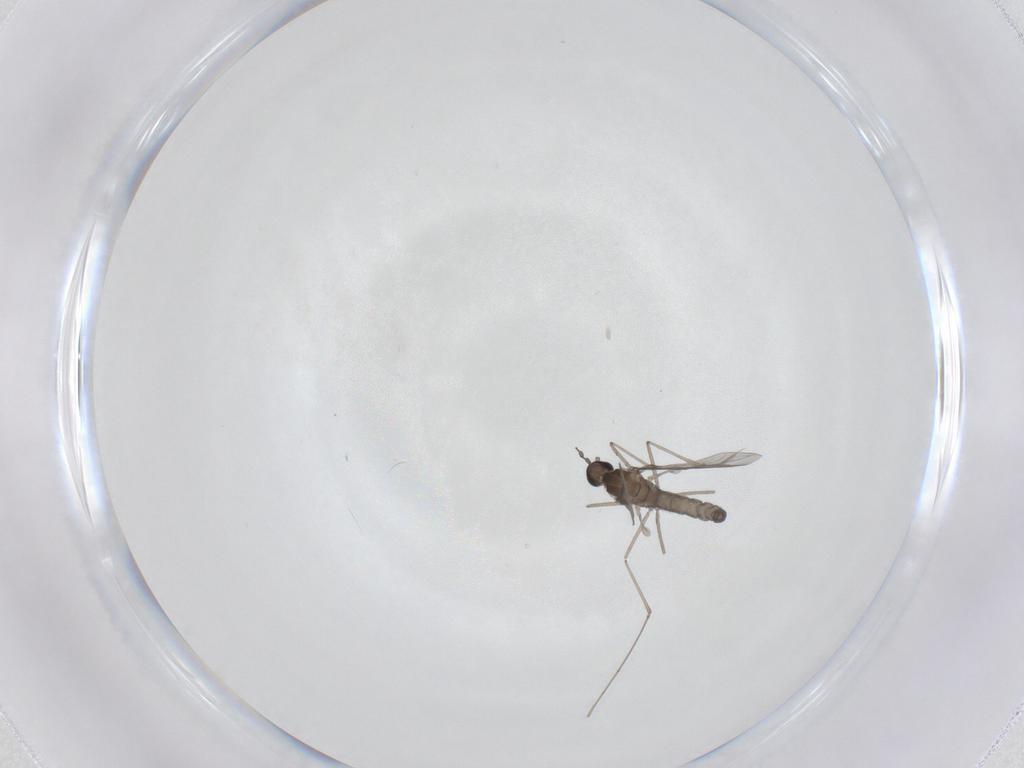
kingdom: Animalia
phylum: Arthropoda
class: Insecta
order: Diptera
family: Cecidomyiidae
